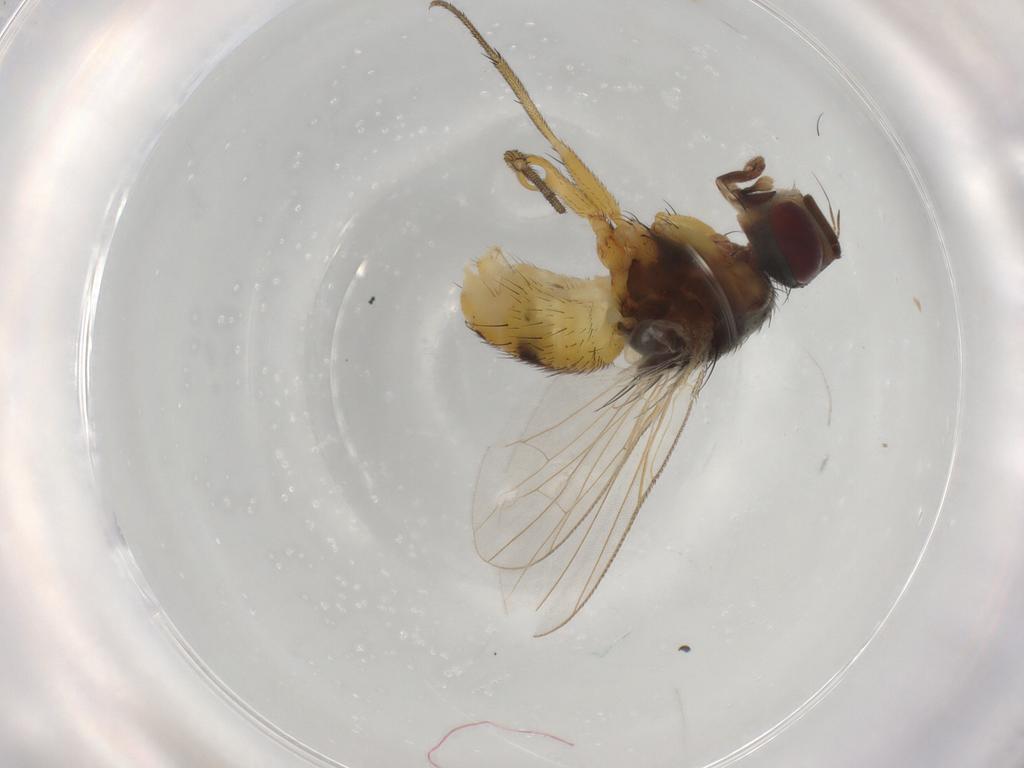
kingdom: Animalia
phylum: Arthropoda
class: Insecta
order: Diptera
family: Muscidae
